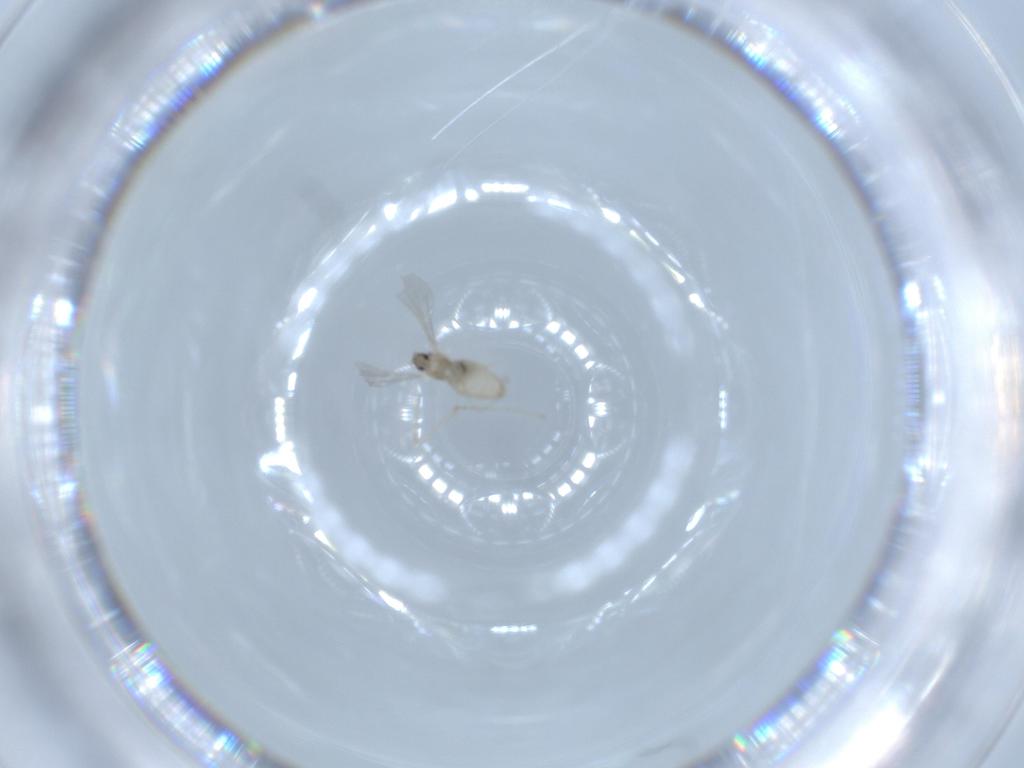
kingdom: Animalia
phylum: Arthropoda
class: Insecta
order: Diptera
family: Cecidomyiidae
